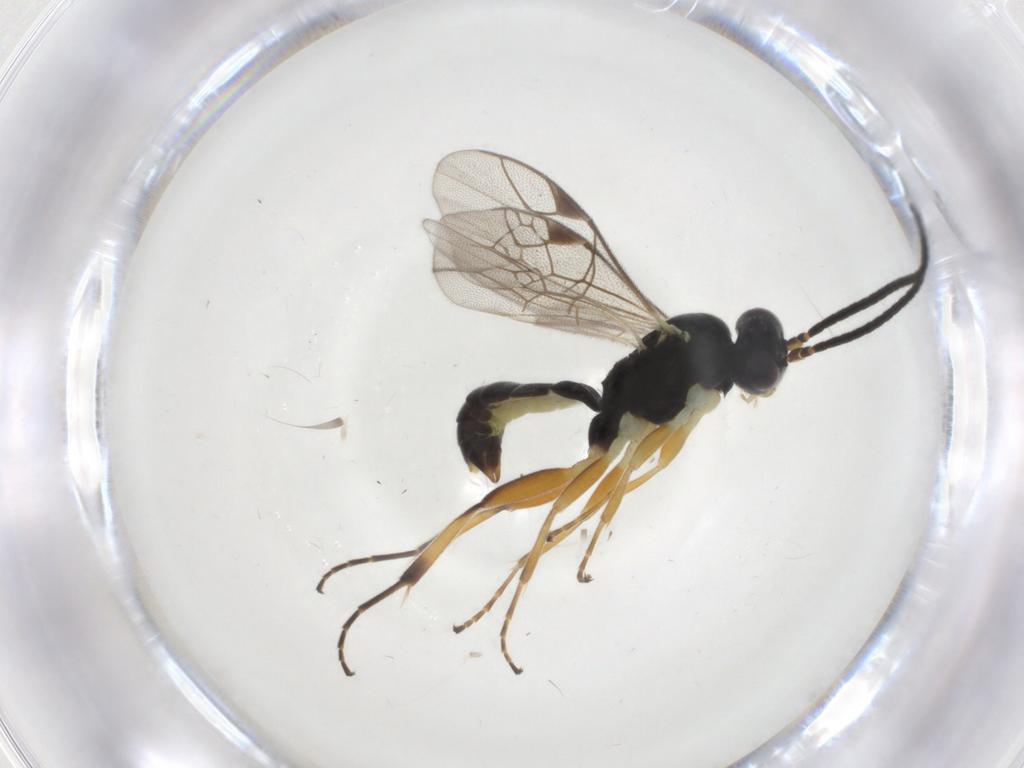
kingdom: Animalia
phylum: Arthropoda
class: Insecta
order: Hymenoptera
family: Ichneumonidae
